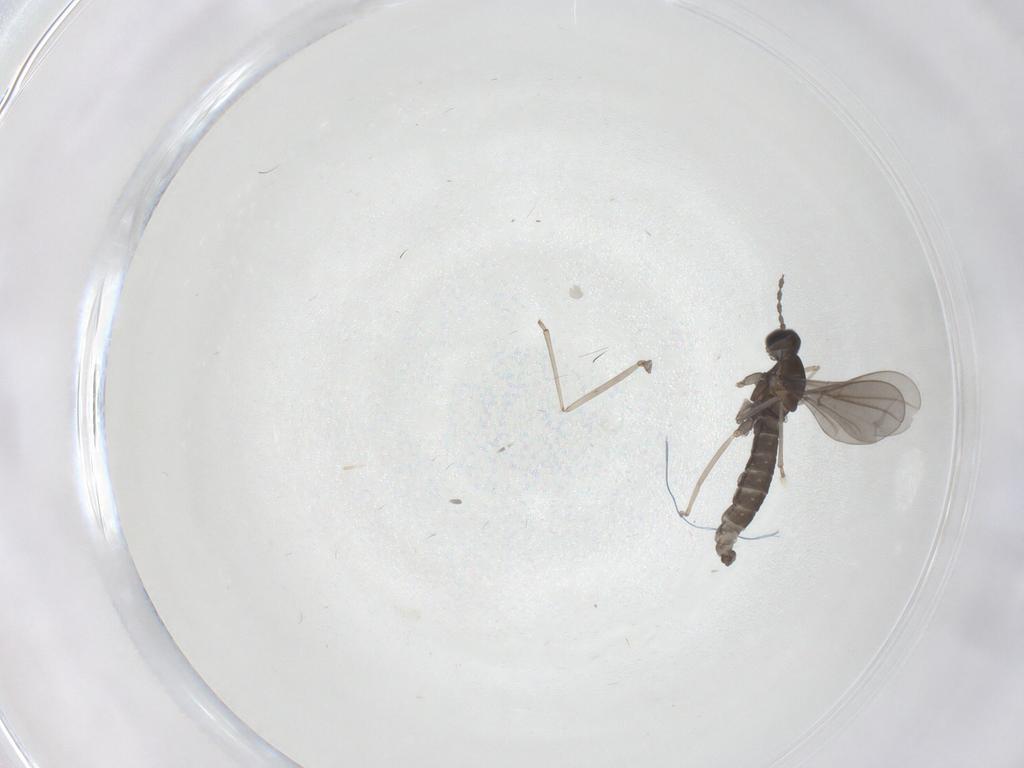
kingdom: Animalia
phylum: Arthropoda
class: Insecta
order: Diptera
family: Cecidomyiidae
